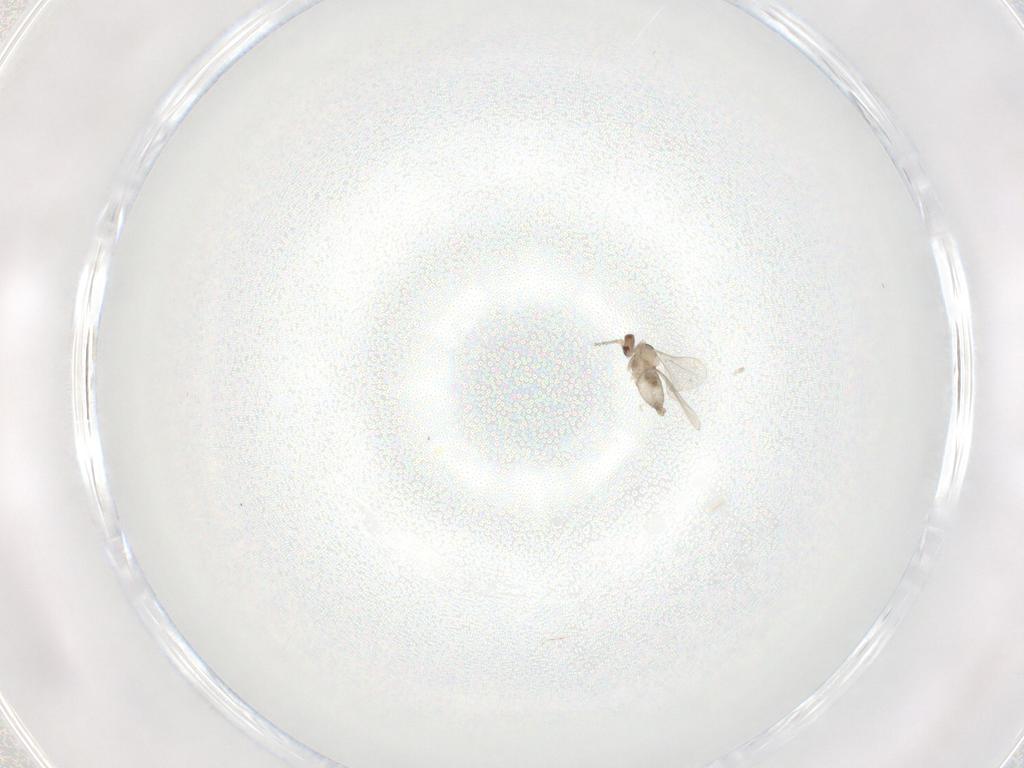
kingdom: Animalia
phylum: Arthropoda
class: Insecta
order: Diptera
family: Cecidomyiidae
